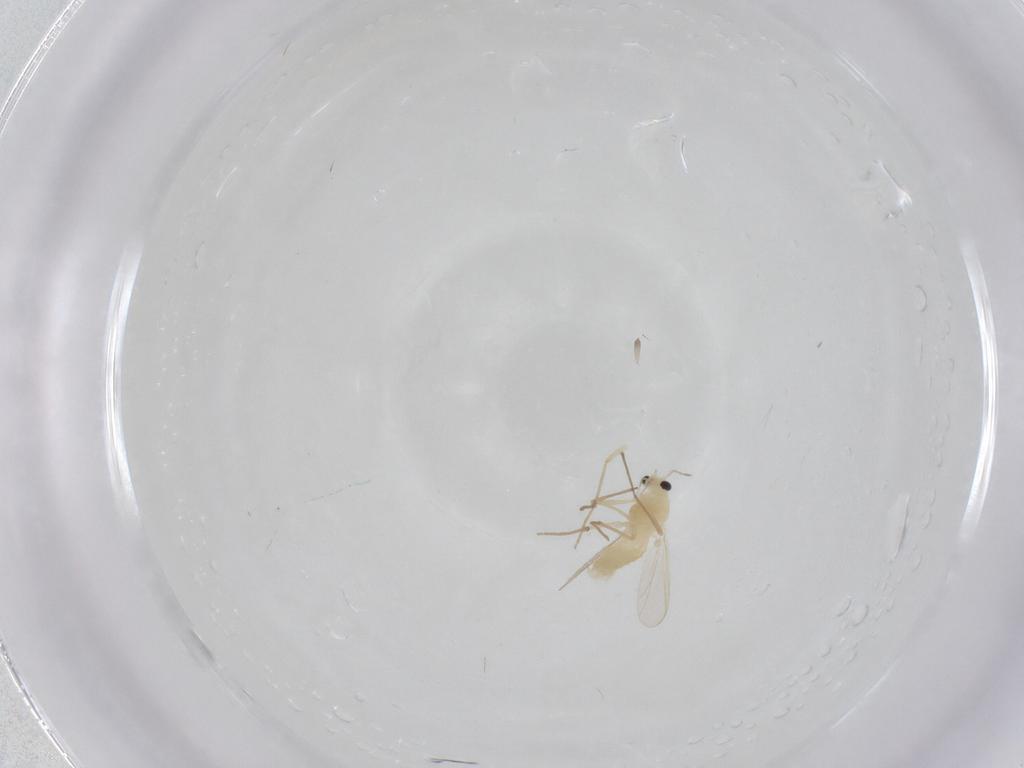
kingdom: Animalia
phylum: Arthropoda
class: Insecta
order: Diptera
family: Chironomidae
